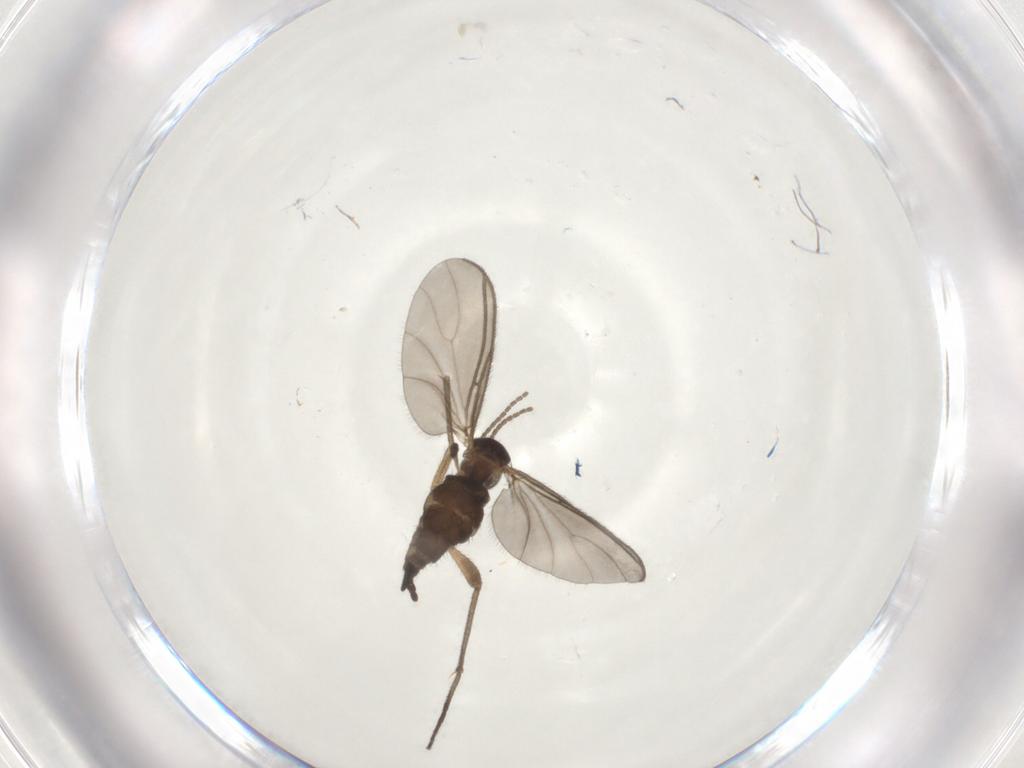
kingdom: Animalia
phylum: Arthropoda
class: Insecta
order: Diptera
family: Sciaridae
